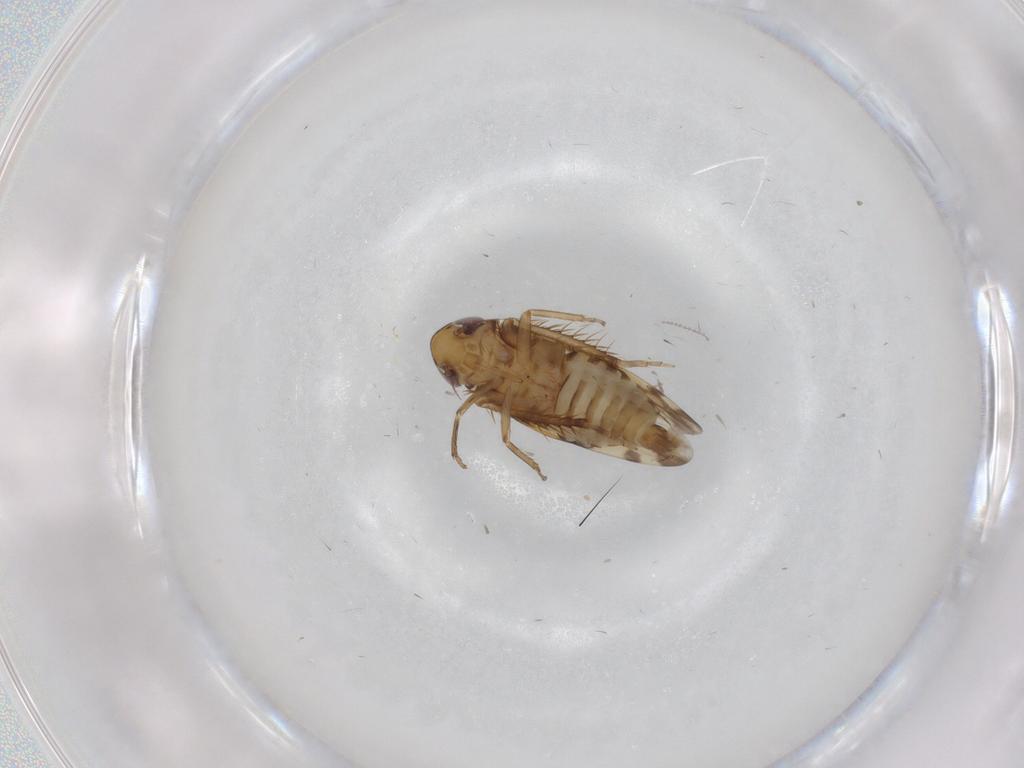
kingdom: Animalia
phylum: Arthropoda
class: Insecta
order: Hemiptera
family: Cicadellidae
